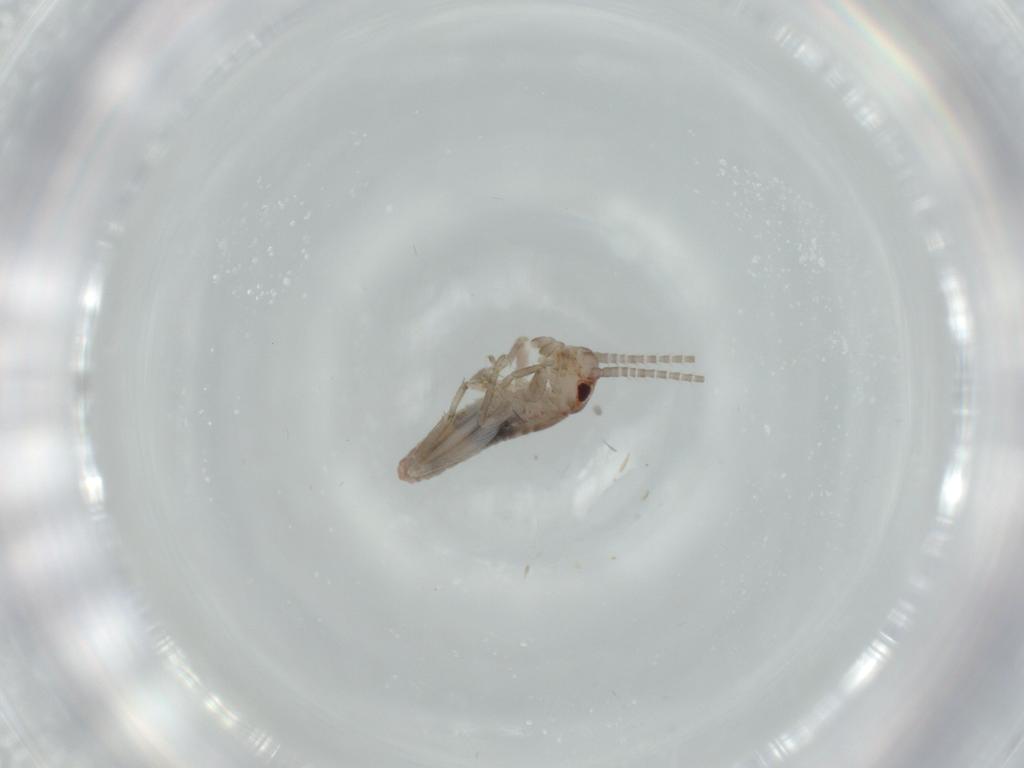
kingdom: Animalia
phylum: Arthropoda
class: Insecta
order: Orthoptera
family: Mogoplistidae
